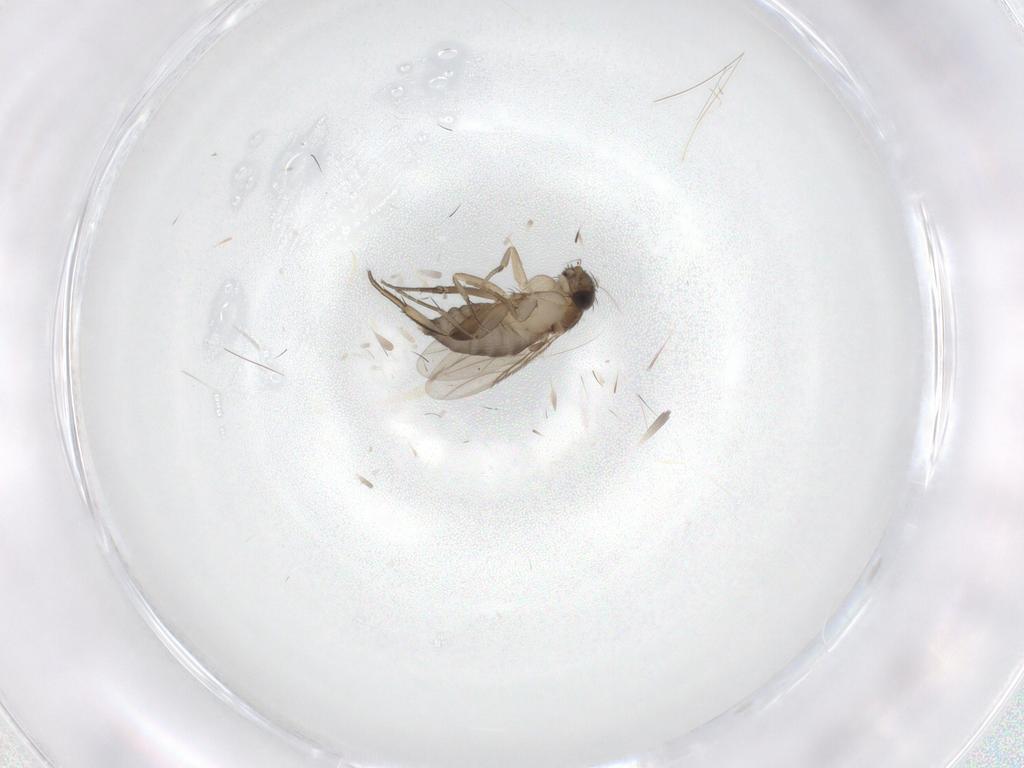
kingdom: Animalia
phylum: Arthropoda
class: Insecta
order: Diptera
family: Phoridae
